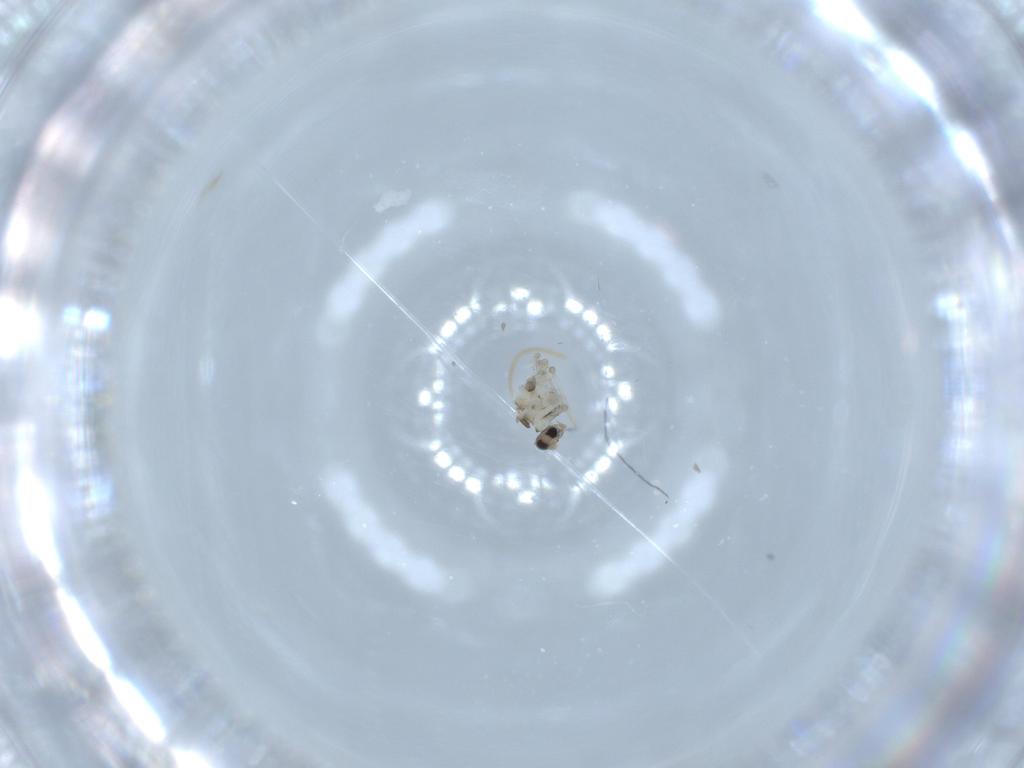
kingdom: Animalia
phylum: Arthropoda
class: Insecta
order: Diptera
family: Cecidomyiidae
